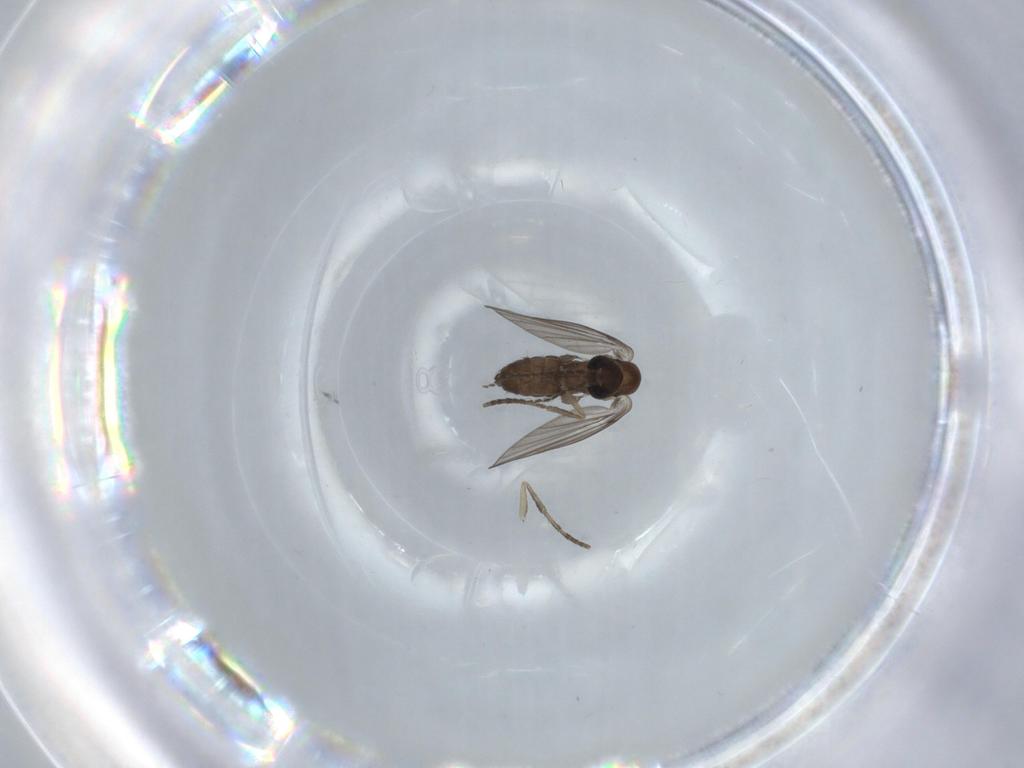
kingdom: Animalia
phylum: Arthropoda
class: Insecta
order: Diptera
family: Psychodidae
